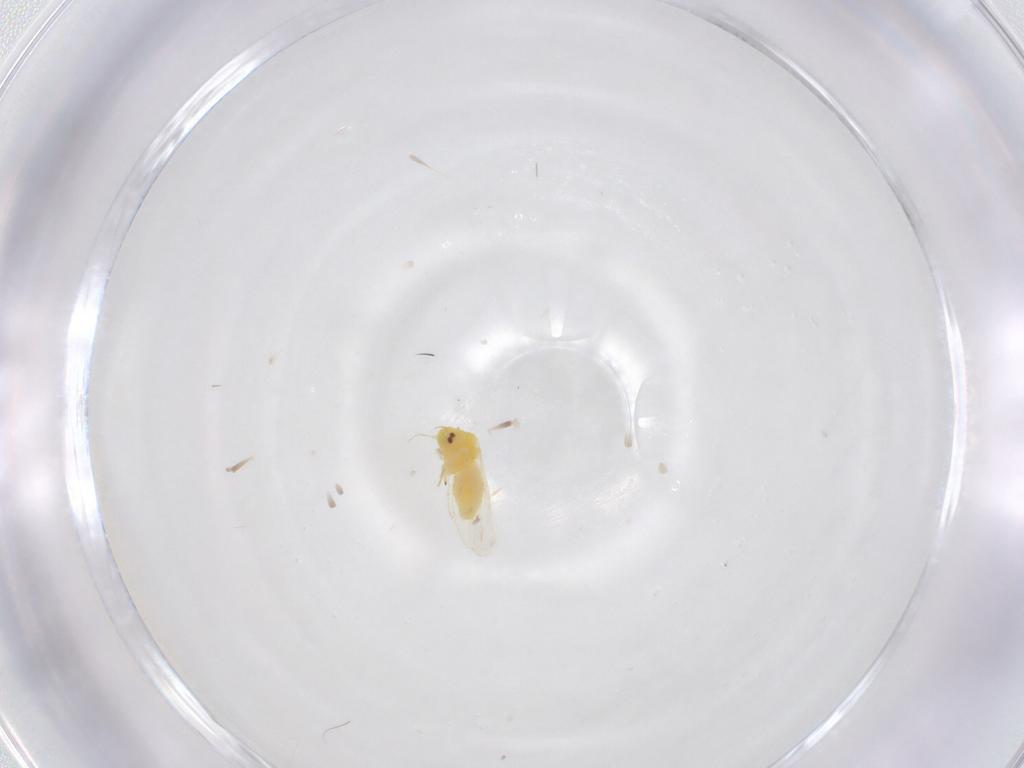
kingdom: Animalia
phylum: Arthropoda
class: Insecta
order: Hemiptera
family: Aleyrodidae
